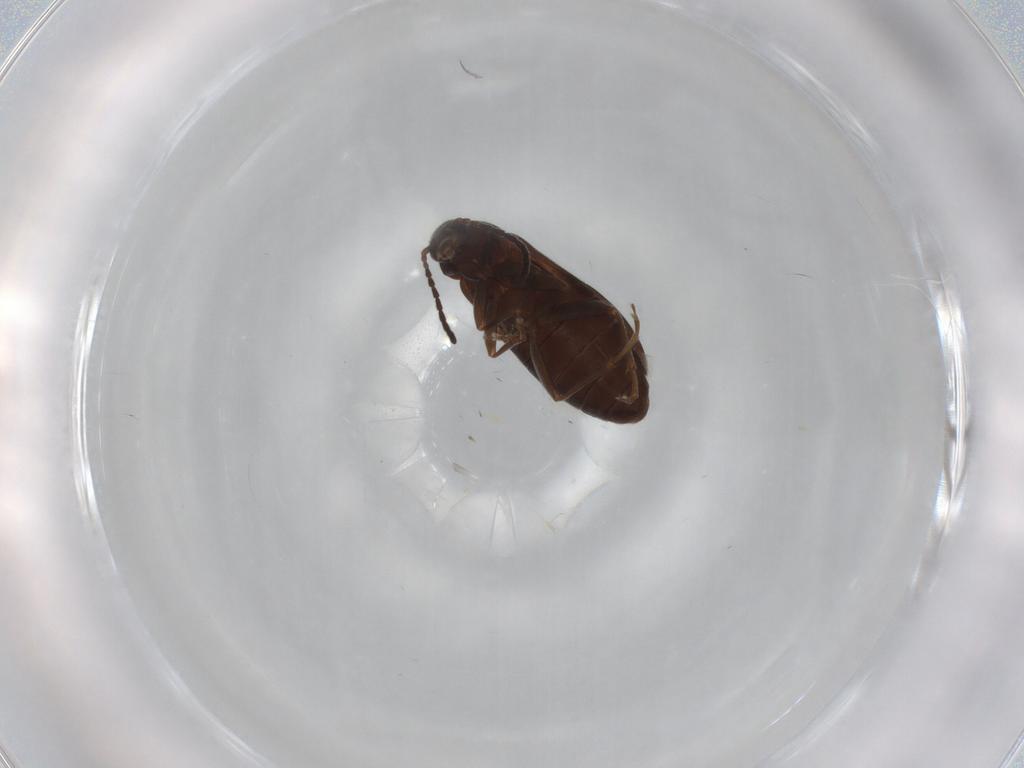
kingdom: Animalia
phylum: Arthropoda
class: Insecta
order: Coleoptera
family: Scraptiidae
